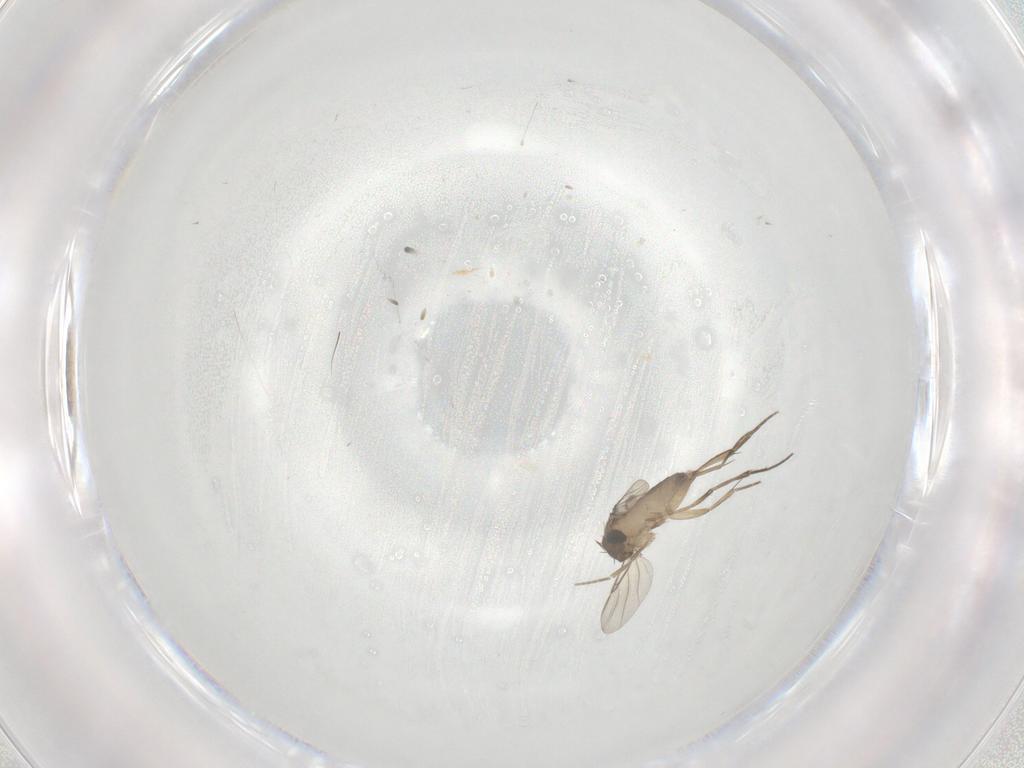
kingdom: Animalia
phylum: Arthropoda
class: Insecta
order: Diptera
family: Phoridae
